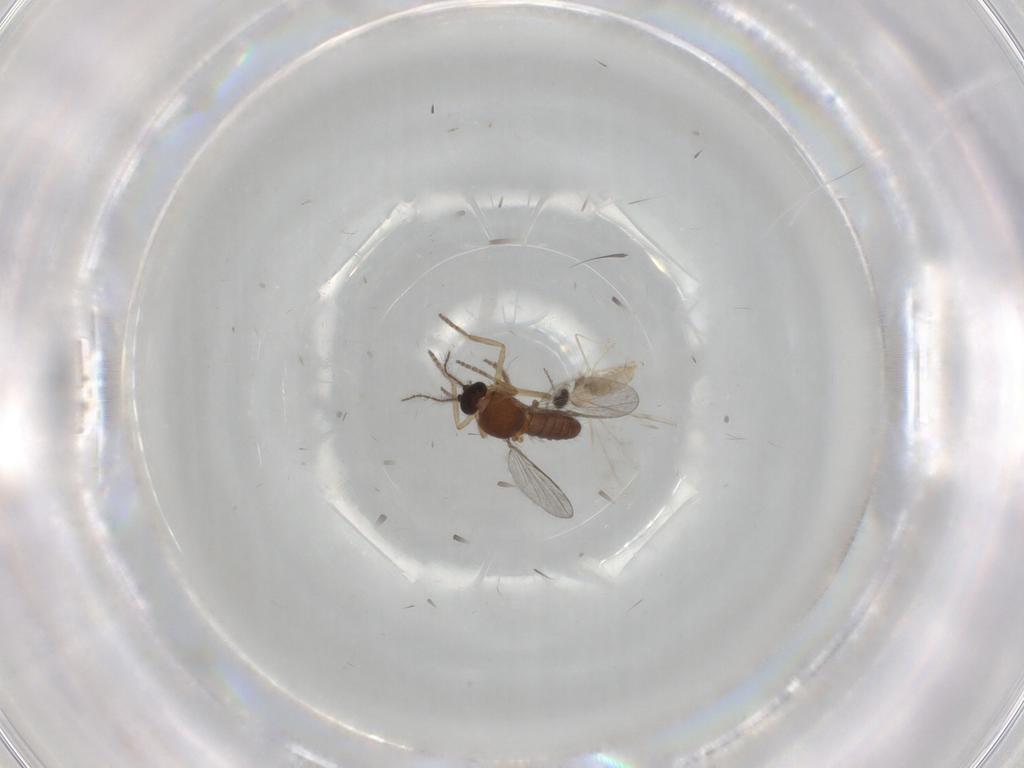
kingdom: Animalia
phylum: Arthropoda
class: Insecta
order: Diptera
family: Ceratopogonidae
